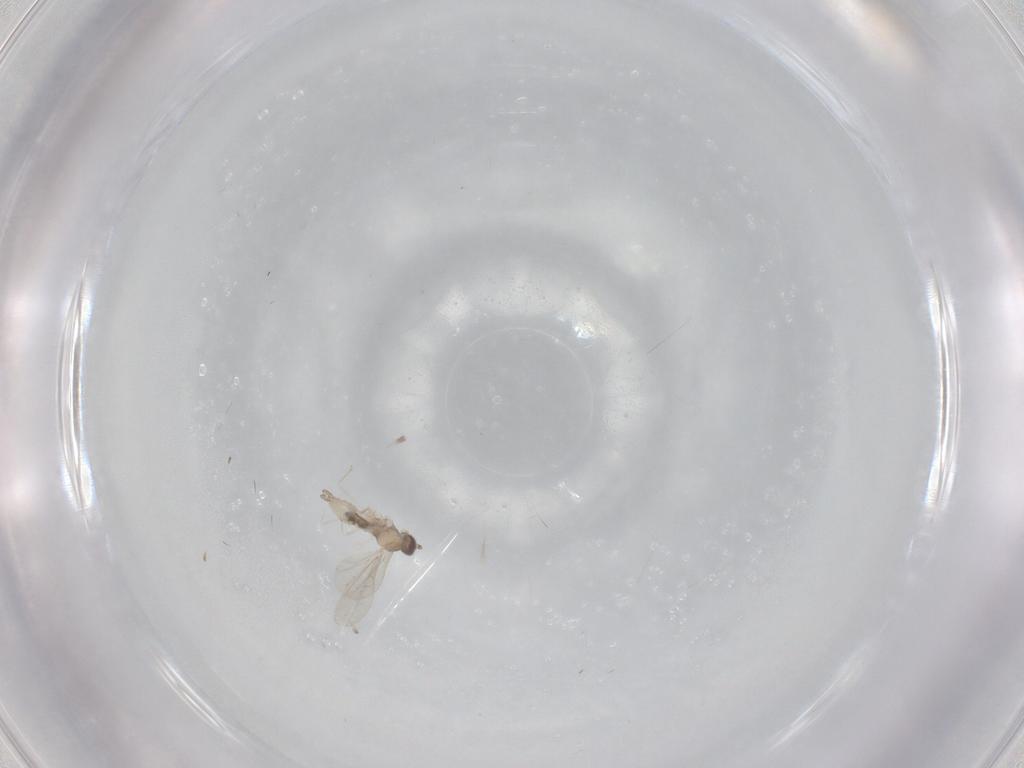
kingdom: Animalia
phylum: Arthropoda
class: Insecta
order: Diptera
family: Cecidomyiidae
